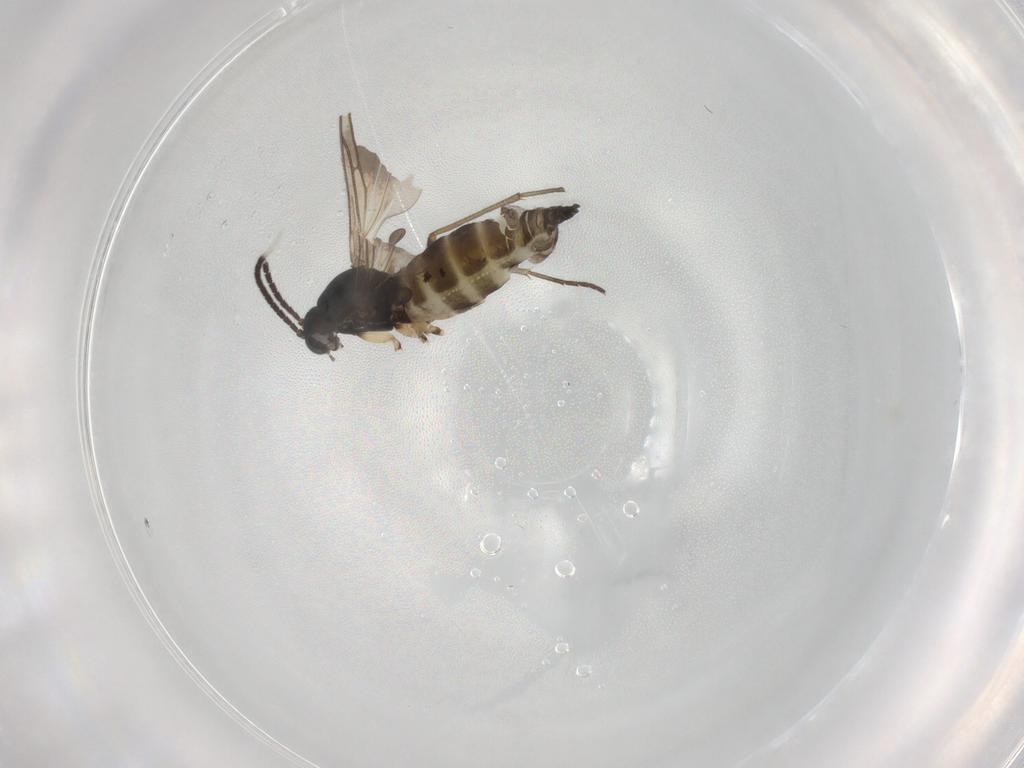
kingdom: Animalia
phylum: Arthropoda
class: Insecta
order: Diptera
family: Sciaridae
